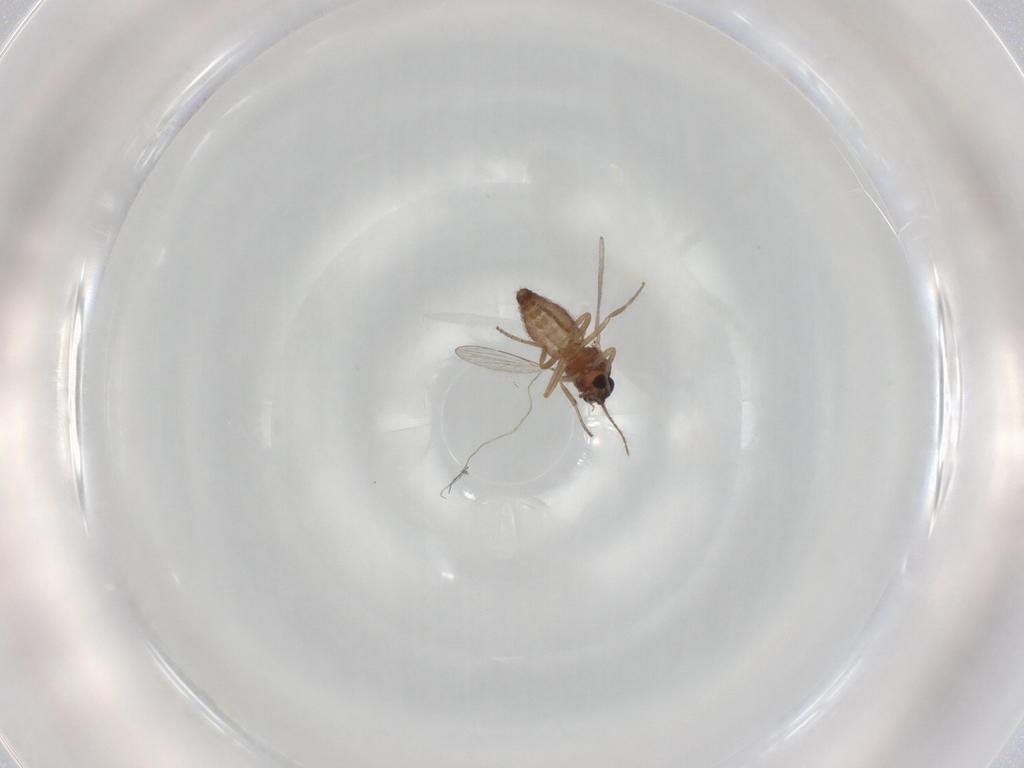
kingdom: Animalia
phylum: Arthropoda
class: Insecta
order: Diptera
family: Ceratopogonidae
